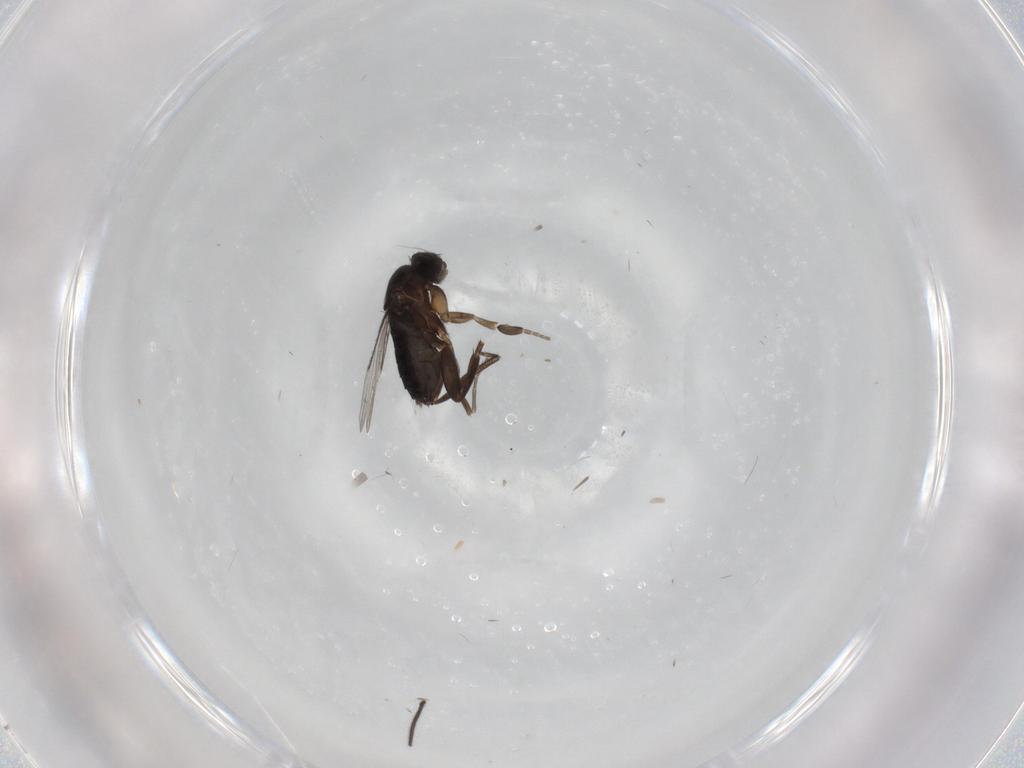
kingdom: Animalia
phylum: Arthropoda
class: Insecta
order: Diptera
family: Phoridae
